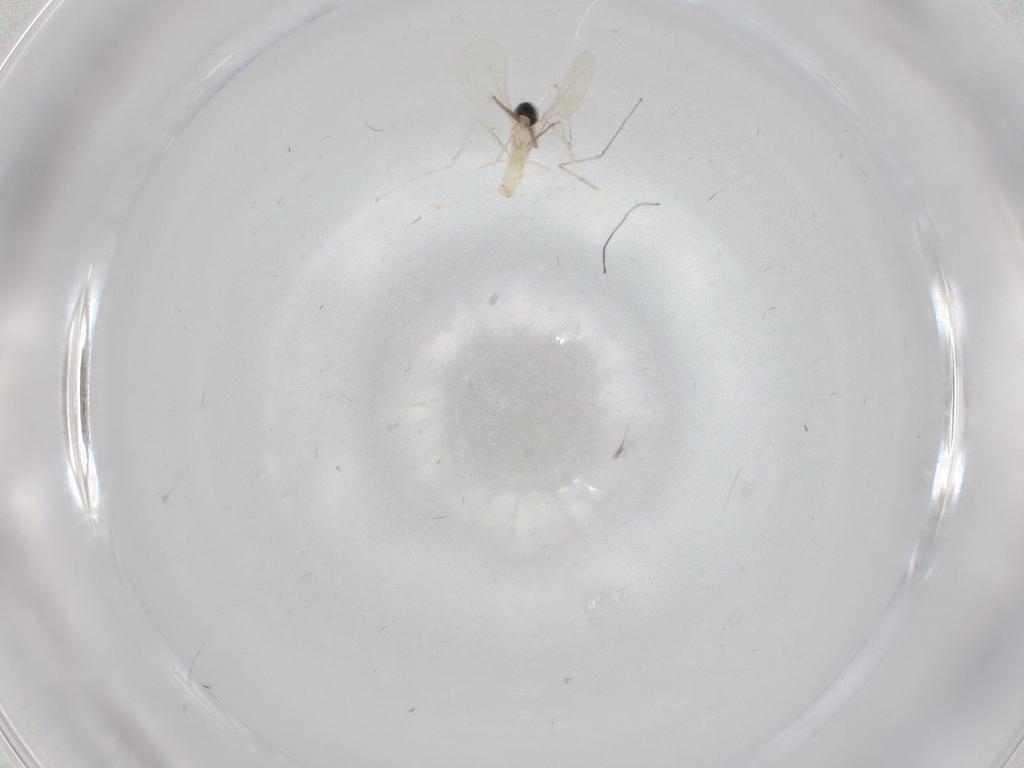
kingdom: Animalia
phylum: Arthropoda
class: Insecta
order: Diptera
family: Cecidomyiidae
